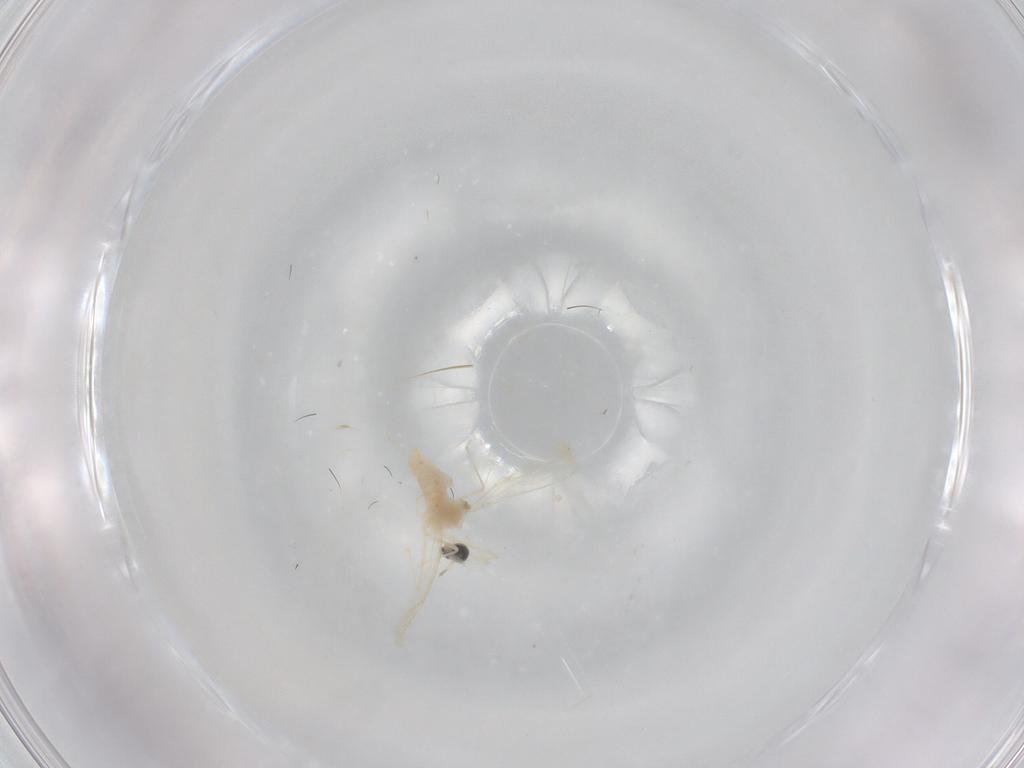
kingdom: Animalia
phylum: Arthropoda
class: Insecta
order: Diptera
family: Cecidomyiidae
